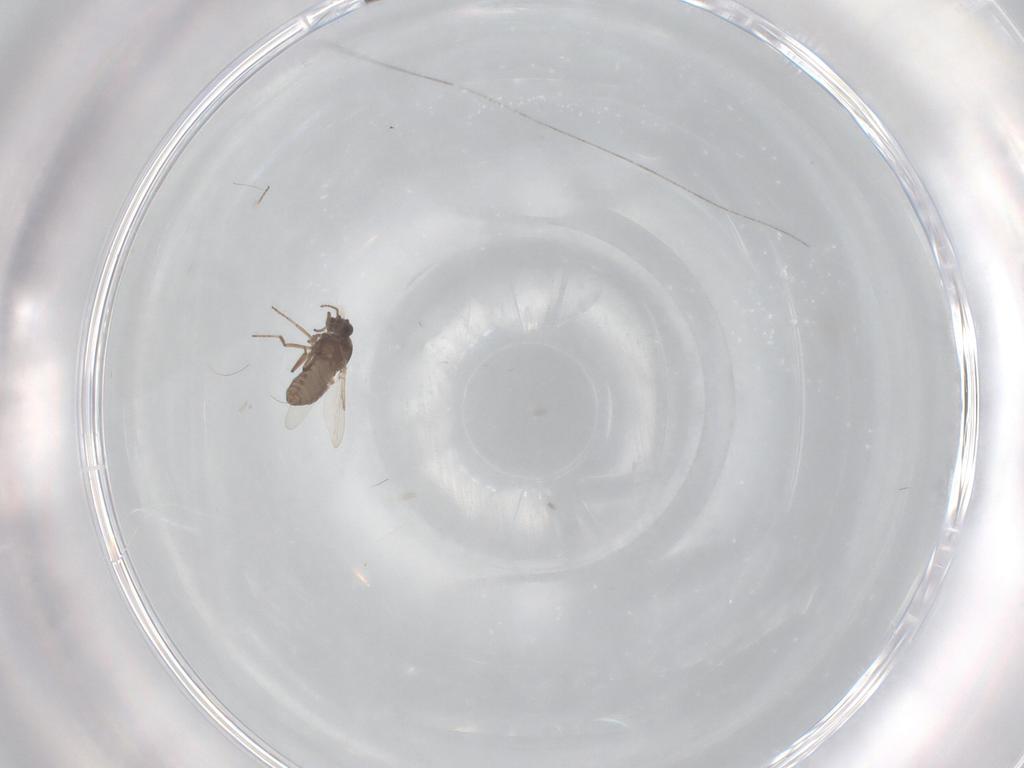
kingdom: Animalia
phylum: Arthropoda
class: Insecta
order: Diptera
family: Ceratopogonidae
